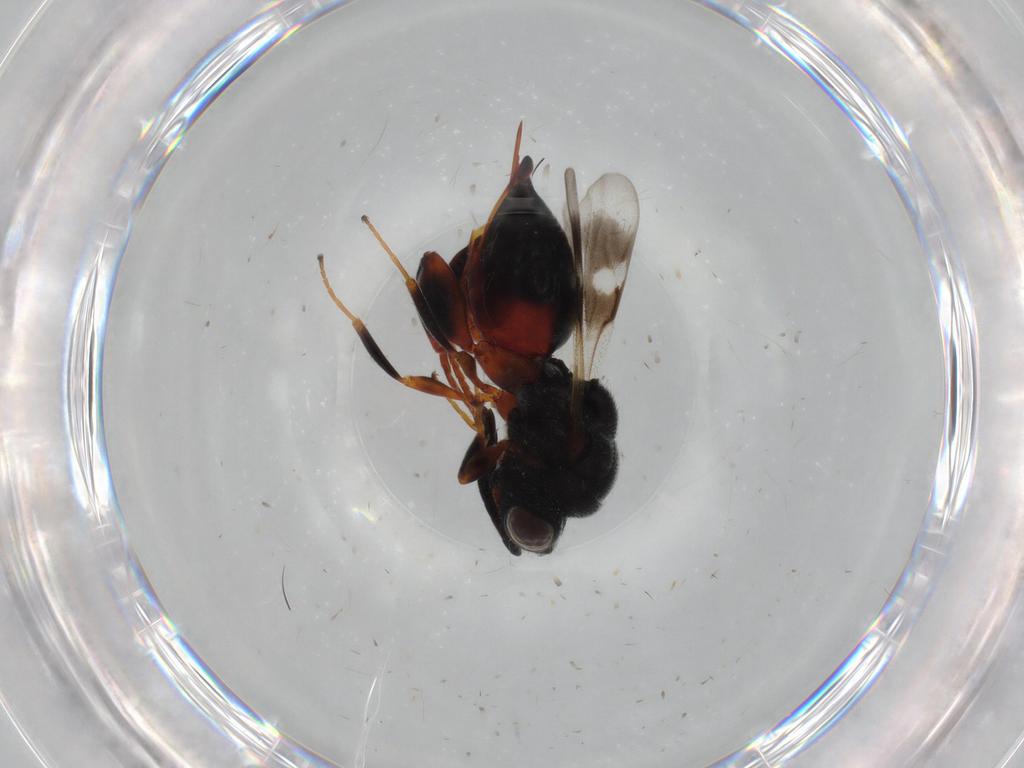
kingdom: Animalia
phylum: Arthropoda
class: Insecta
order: Hymenoptera
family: Chalcididae
